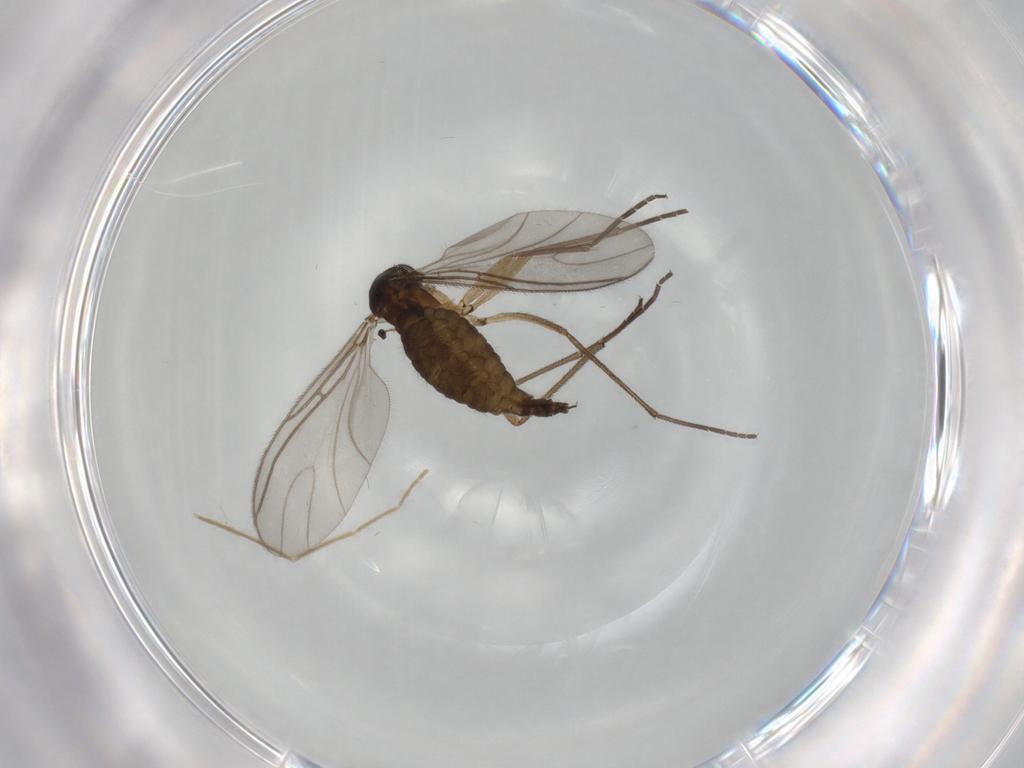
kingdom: Animalia
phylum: Arthropoda
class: Insecta
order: Diptera
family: Sciaridae
